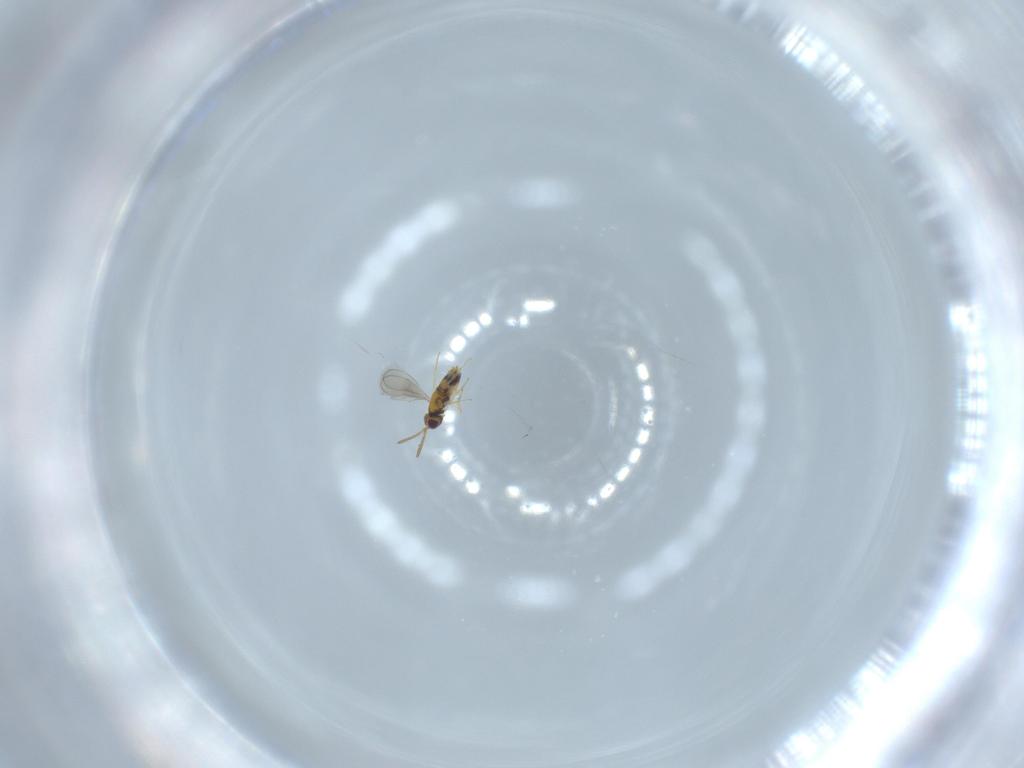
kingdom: Animalia
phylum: Arthropoda
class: Insecta
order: Hymenoptera
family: Aphelinidae
